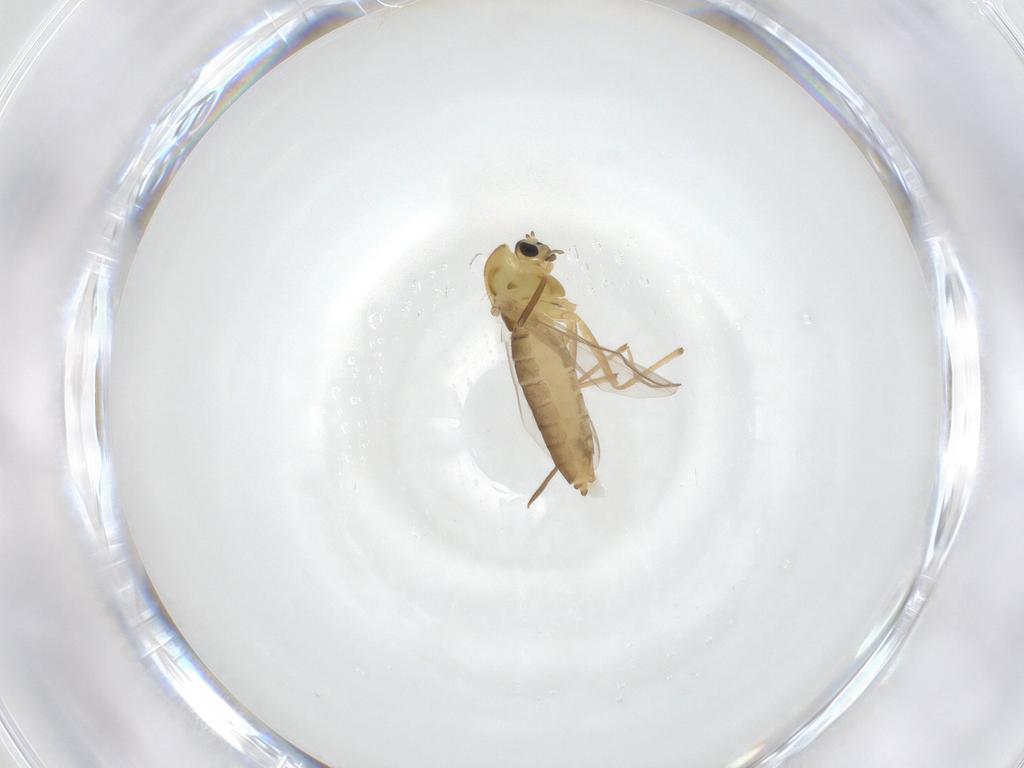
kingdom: Animalia
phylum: Arthropoda
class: Insecta
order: Diptera
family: Chironomidae
